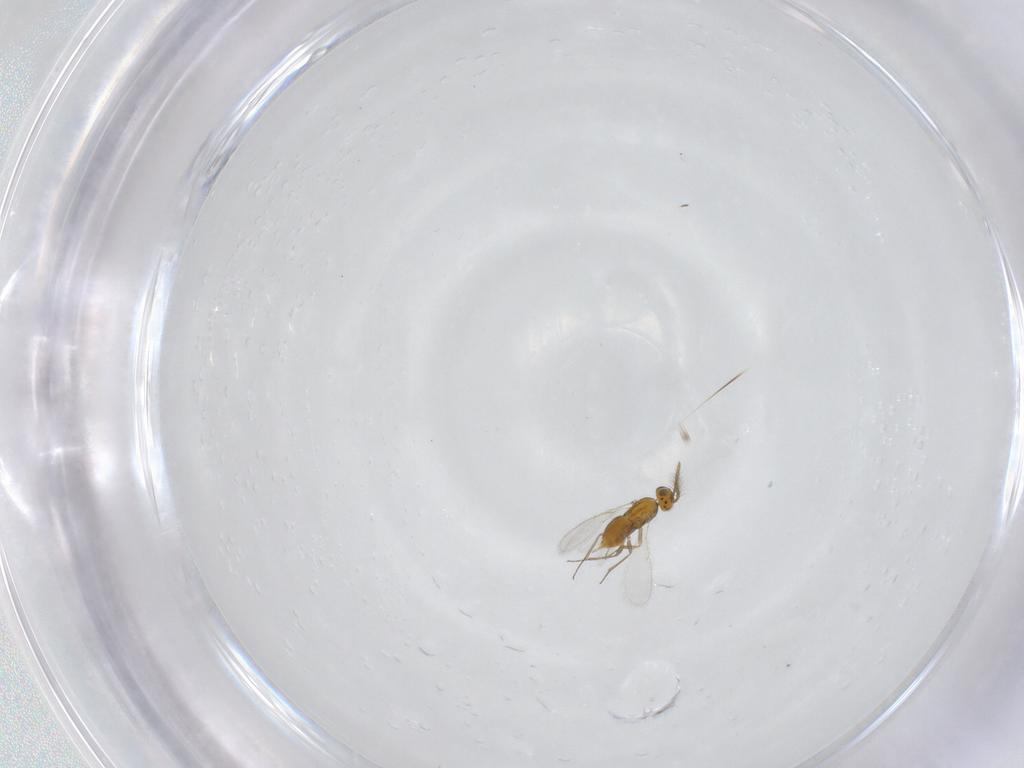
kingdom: Animalia
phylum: Arthropoda
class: Insecta
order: Hymenoptera
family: Aphelinidae
